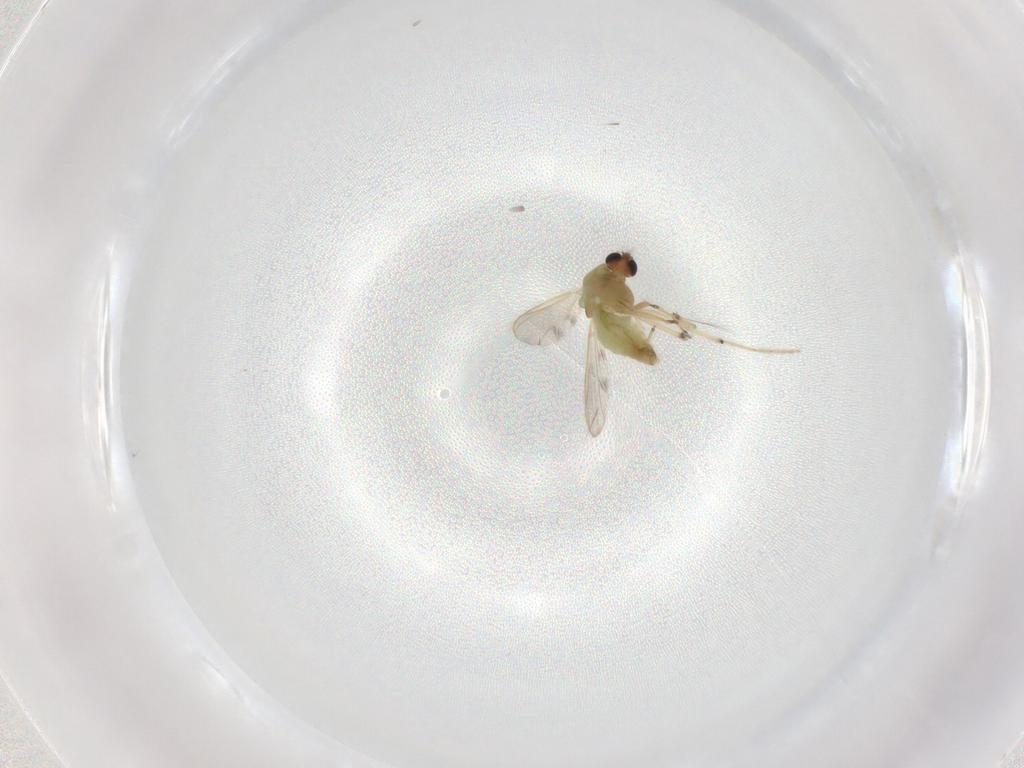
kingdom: Animalia
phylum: Arthropoda
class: Insecta
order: Diptera
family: Chironomidae
